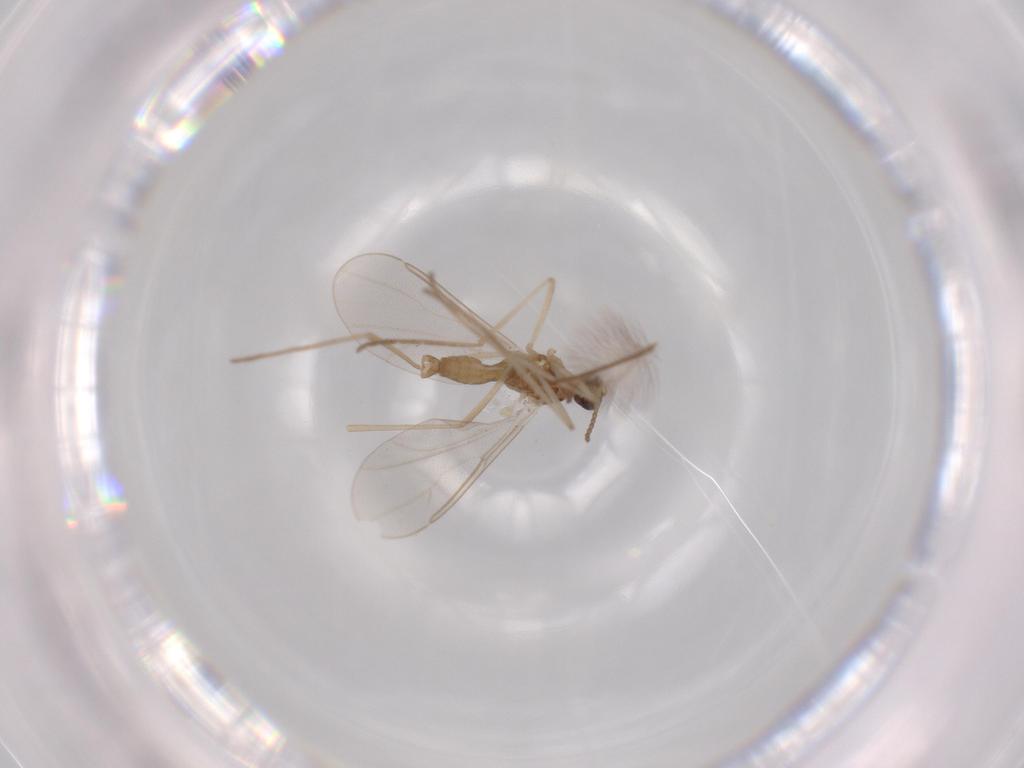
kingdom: Animalia
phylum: Arthropoda
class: Insecta
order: Diptera
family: Cecidomyiidae
